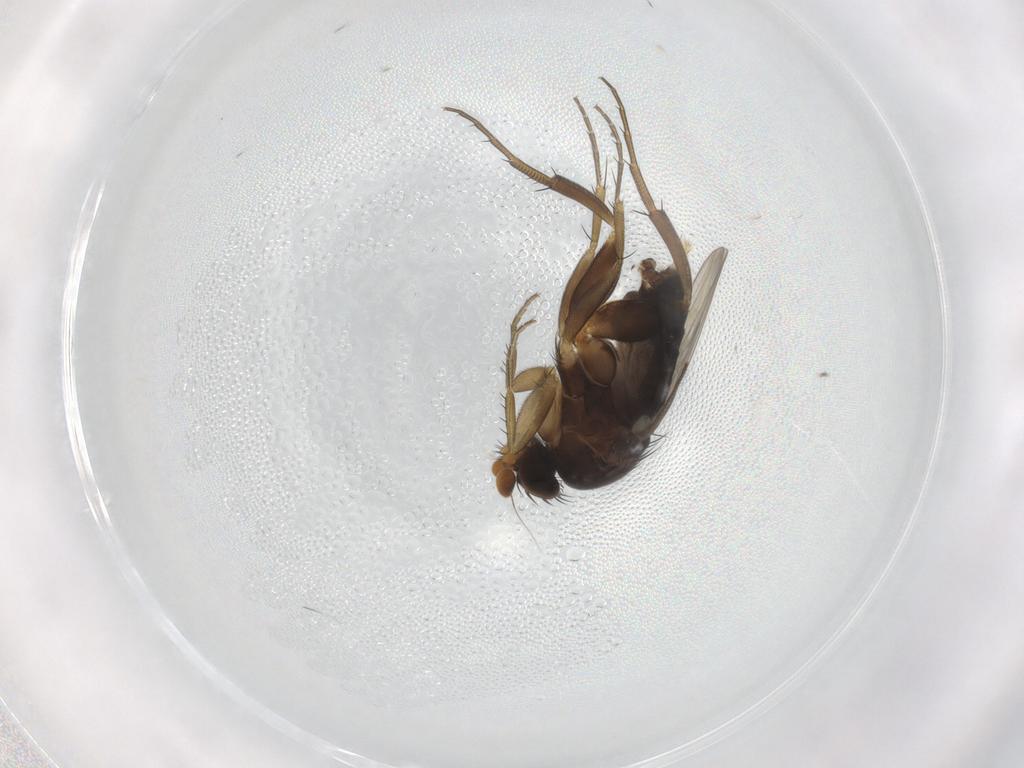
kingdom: Animalia
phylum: Arthropoda
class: Insecta
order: Diptera
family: Phoridae
